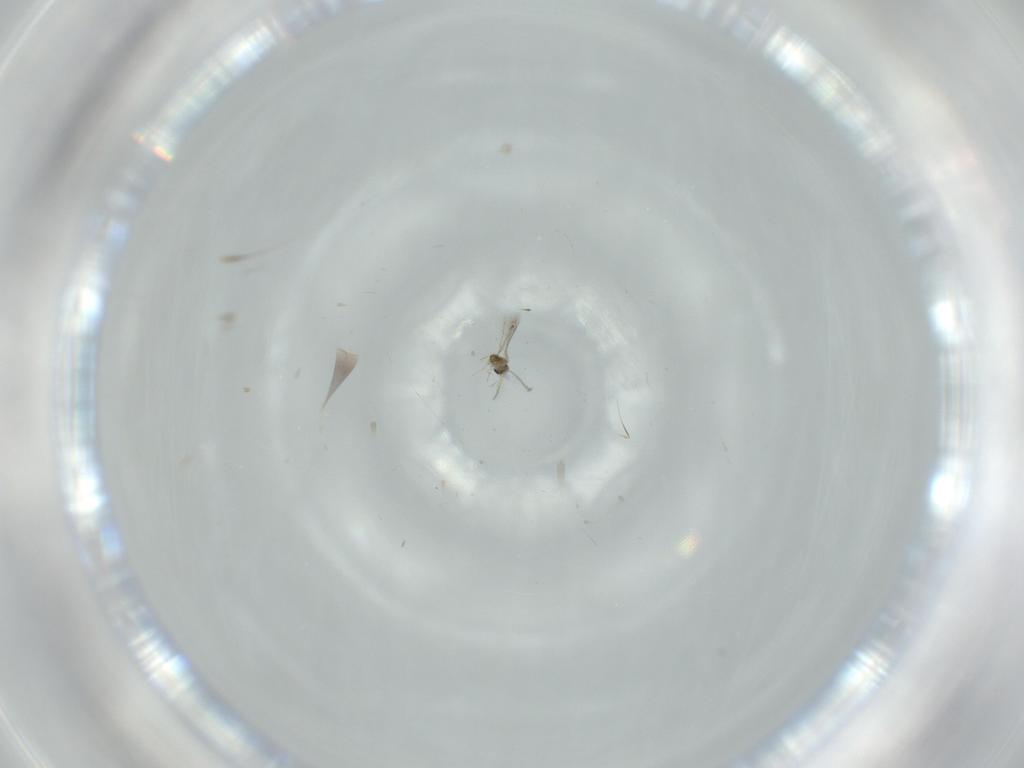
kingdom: Animalia
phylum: Arthropoda
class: Insecta
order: Hymenoptera
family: Mymaridae
